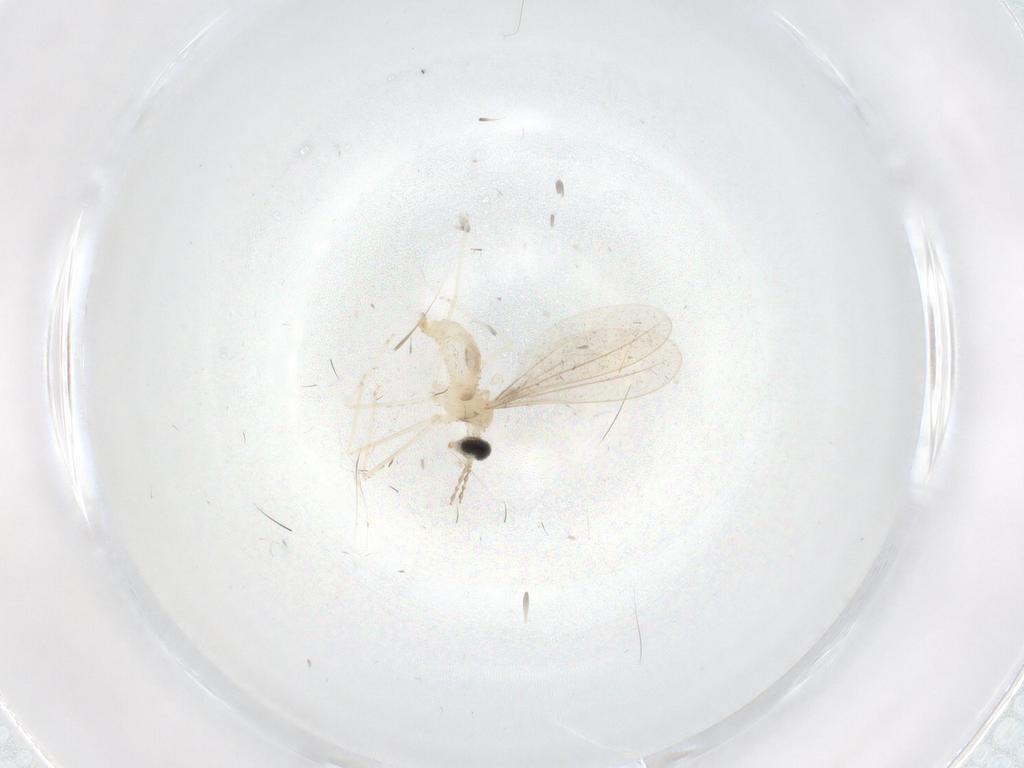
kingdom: Animalia
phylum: Arthropoda
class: Insecta
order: Diptera
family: Cecidomyiidae
